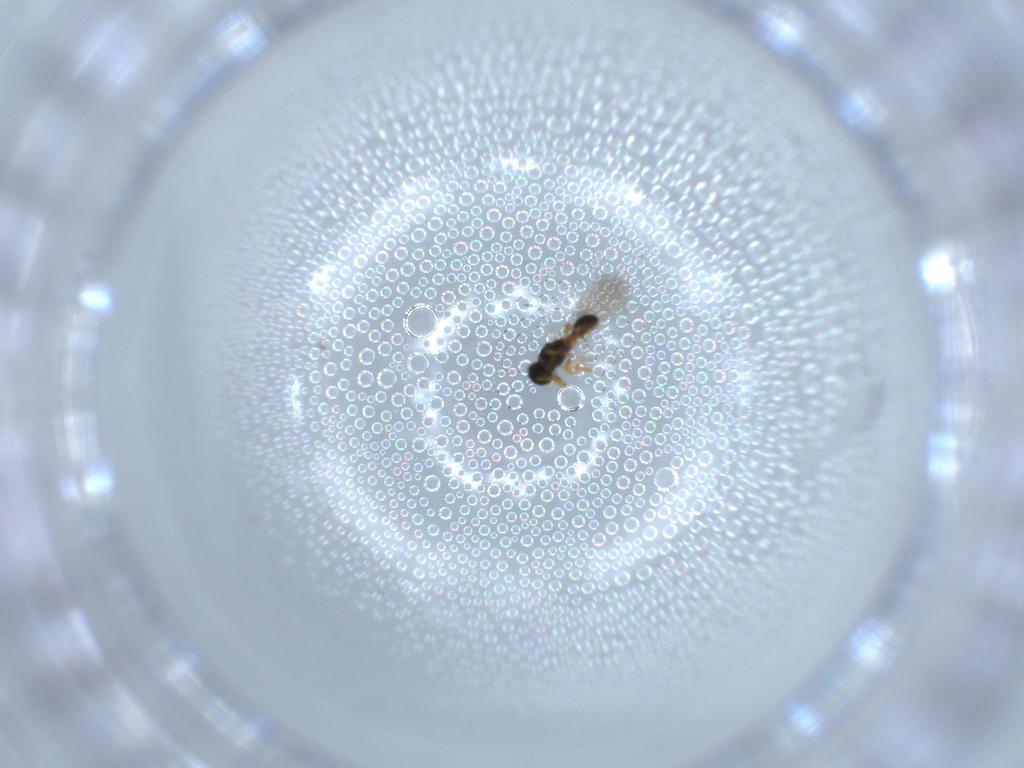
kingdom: Animalia
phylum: Arthropoda
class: Insecta
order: Hymenoptera
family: Platygastridae
